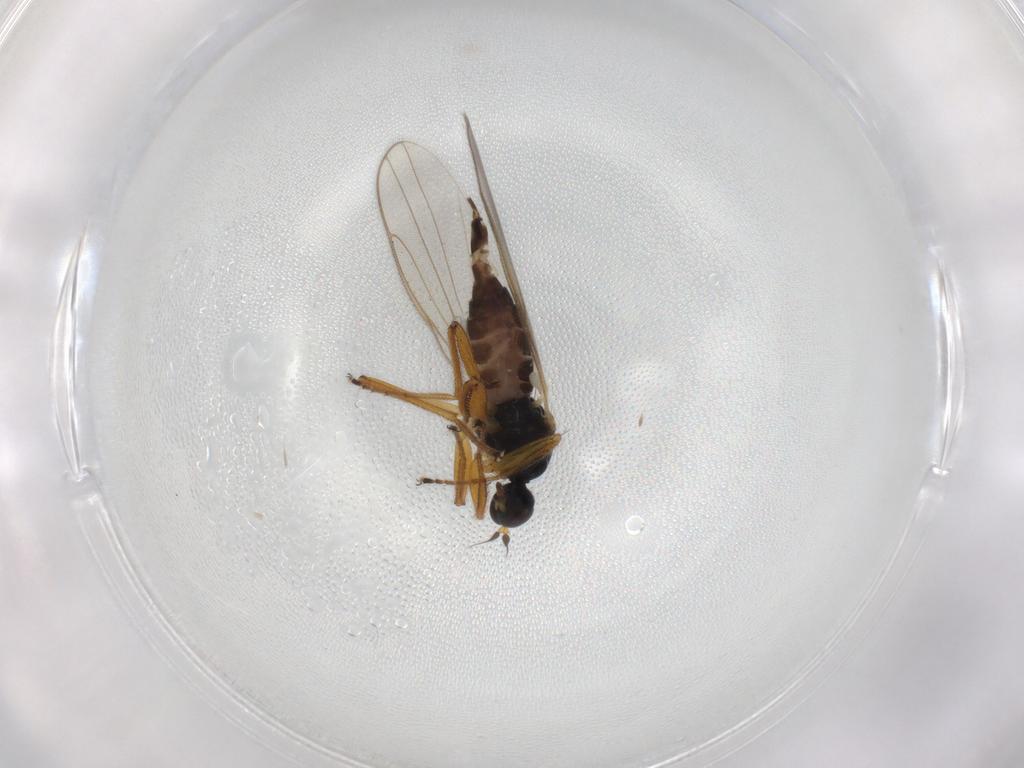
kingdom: Animalia
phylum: Arthropoda
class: Insecta
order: Diptera
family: Hybotidae
